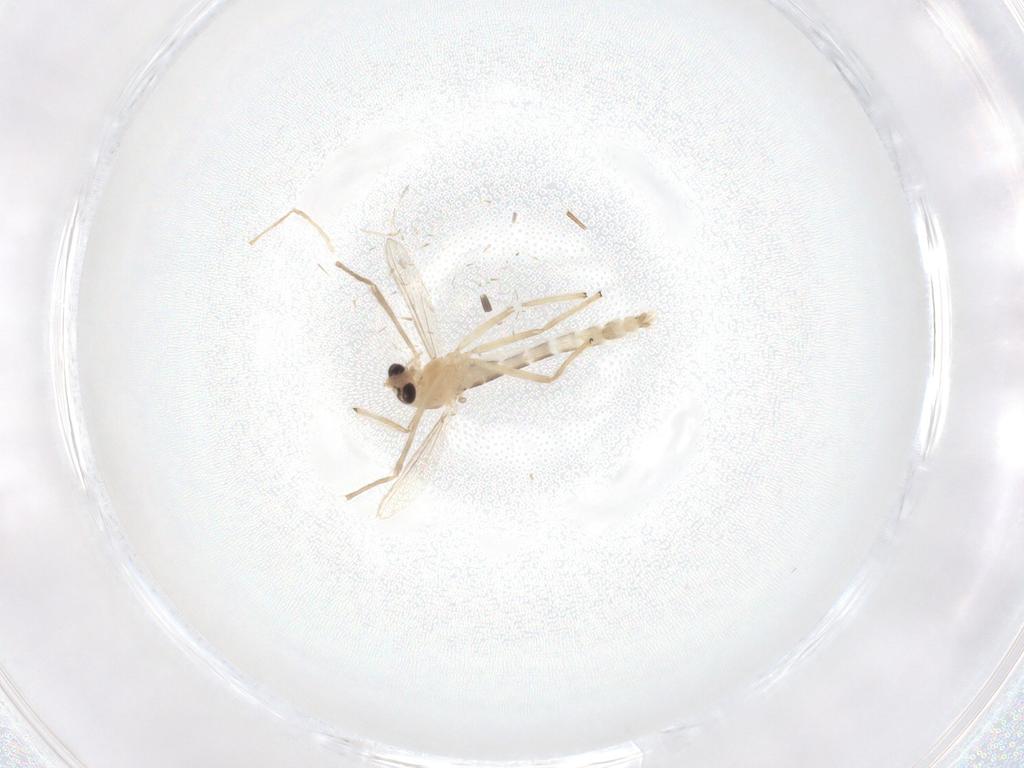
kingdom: Animalia
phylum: Arthropoda
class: Insecta
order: Diptera
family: Chironomidae
